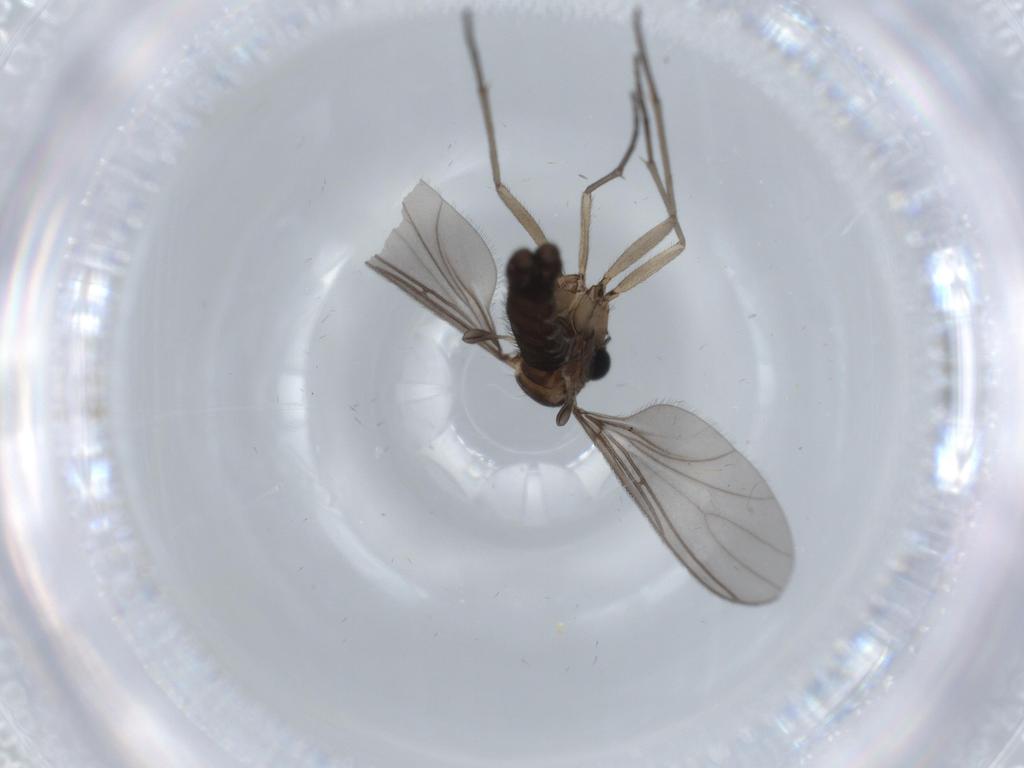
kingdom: Animalia
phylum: Arthropoda
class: Insecta
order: Diptera
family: Sciaridae
